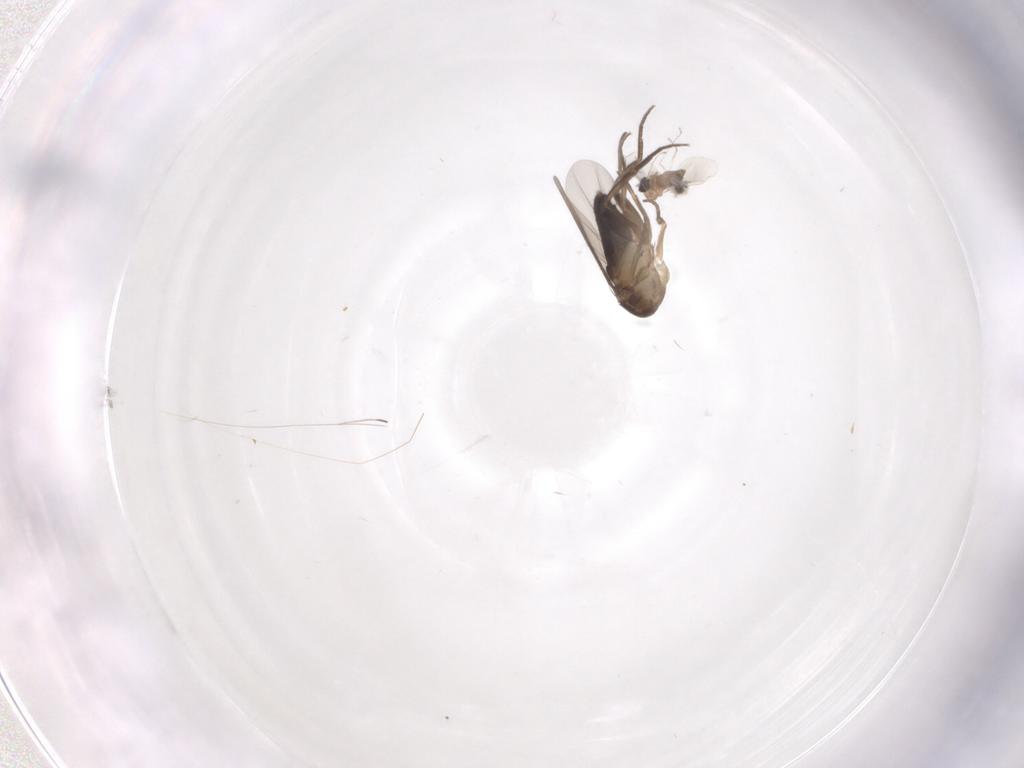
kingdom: Animalia
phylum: Arthropoda
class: Insecta
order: Diptera
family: Phoridae
